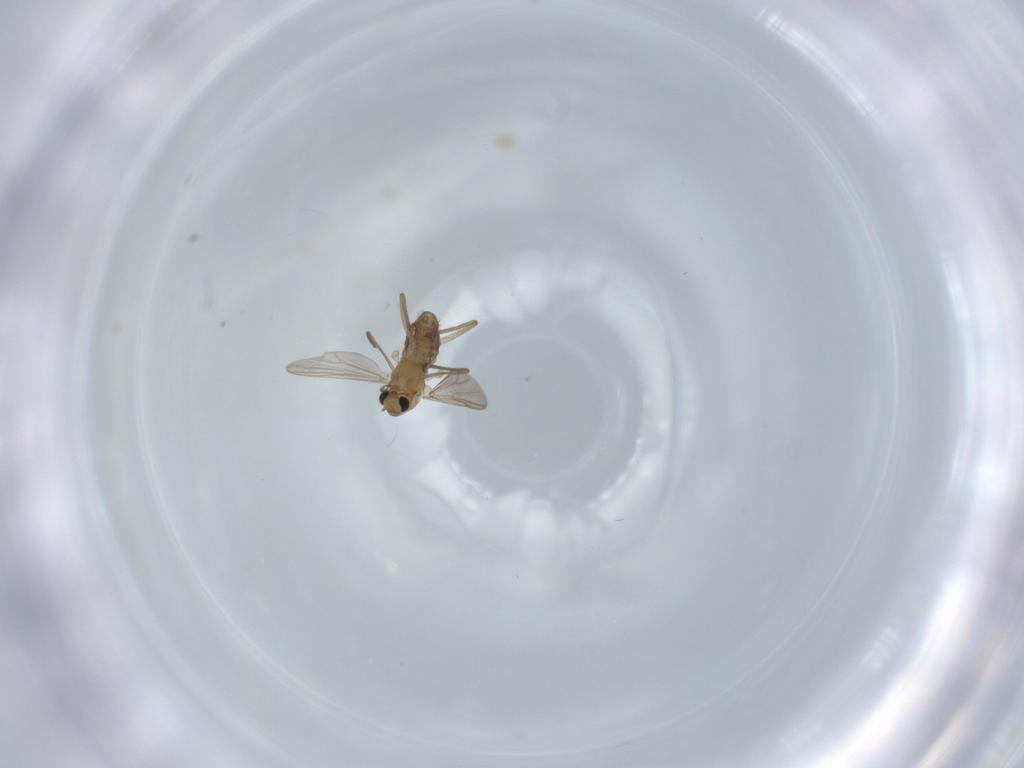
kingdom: Animalia
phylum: Arthropoda
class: Insecta
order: Diptera
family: Chironomidae
